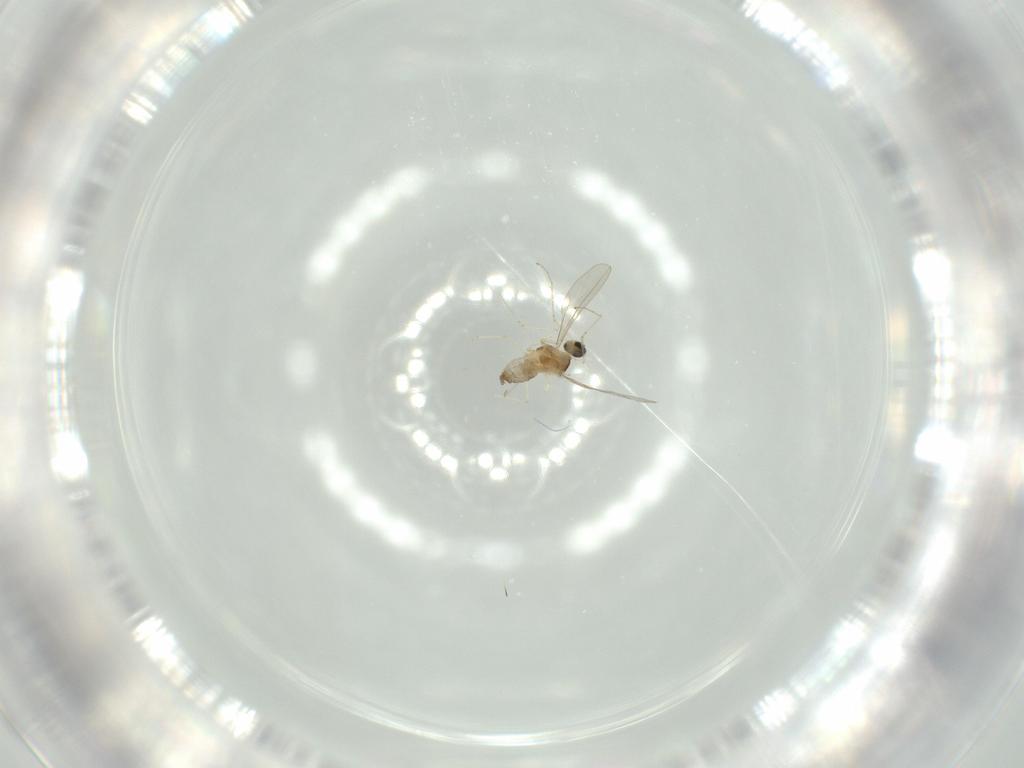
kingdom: Animalia
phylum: Arthropoda
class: Insecta
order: Diptera
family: Cecidomyiidae
